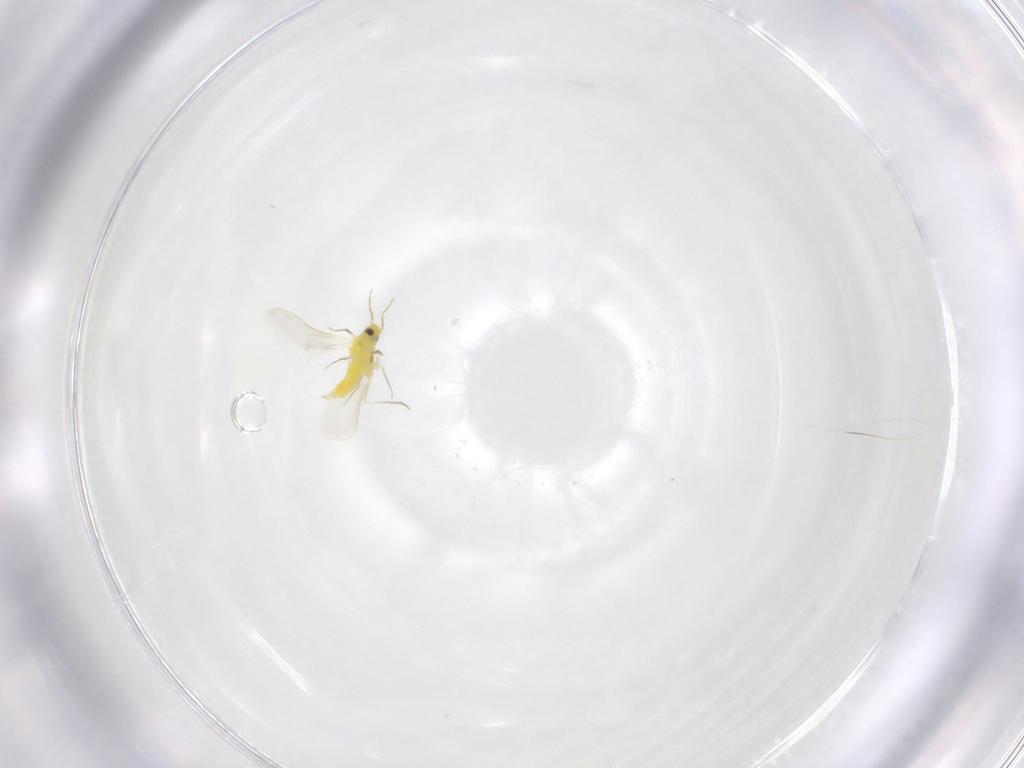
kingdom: Animalia
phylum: Arthropoda
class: Insecta
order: Hemiptera
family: Aleyrodidae
